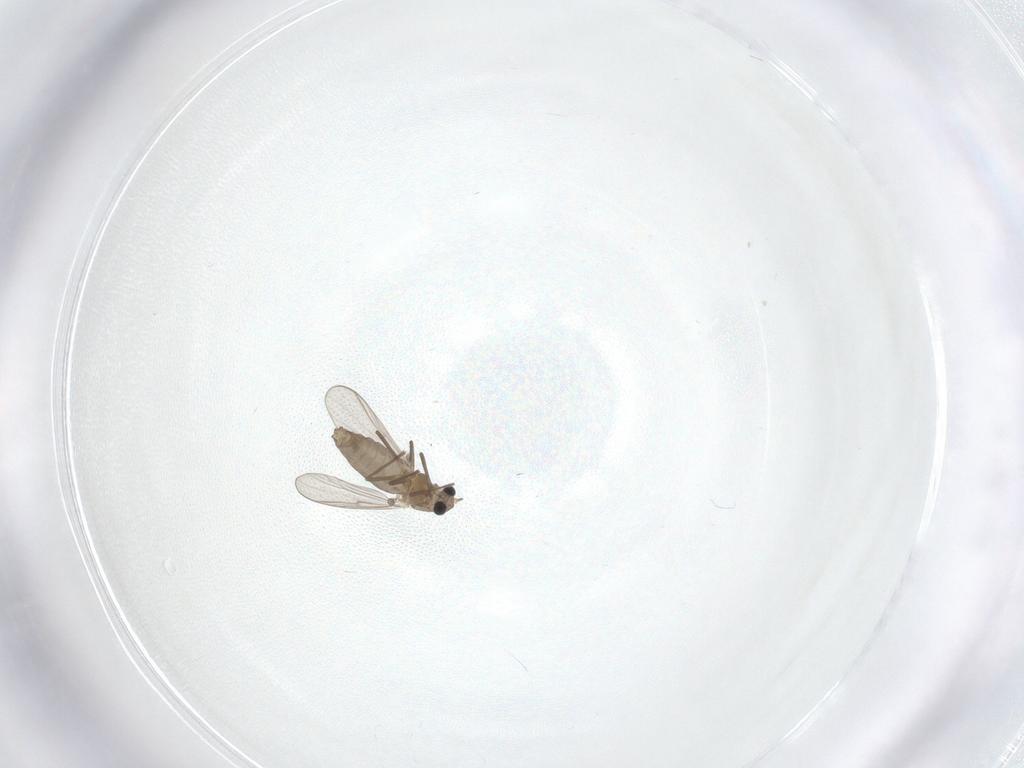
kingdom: Animalia
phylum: Arthropoda
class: Insecta
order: Diptera
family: Chironomidae
